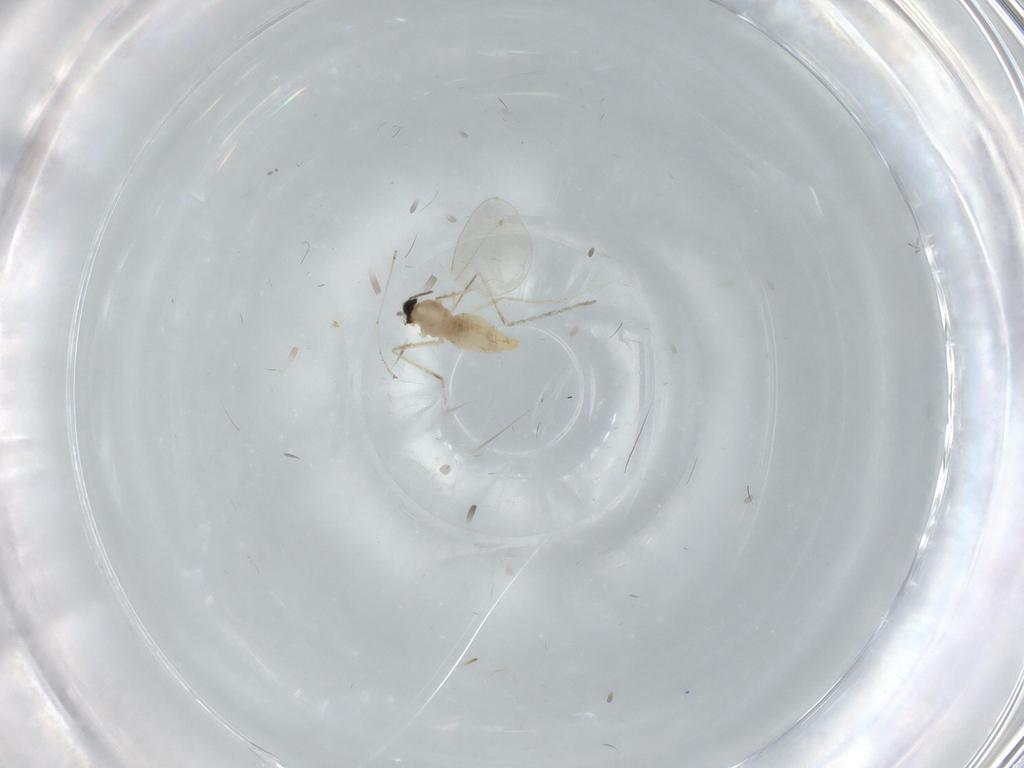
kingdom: Animalia
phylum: Arthropoda
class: Insecta
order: Diptera
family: Cecidomyiidae
